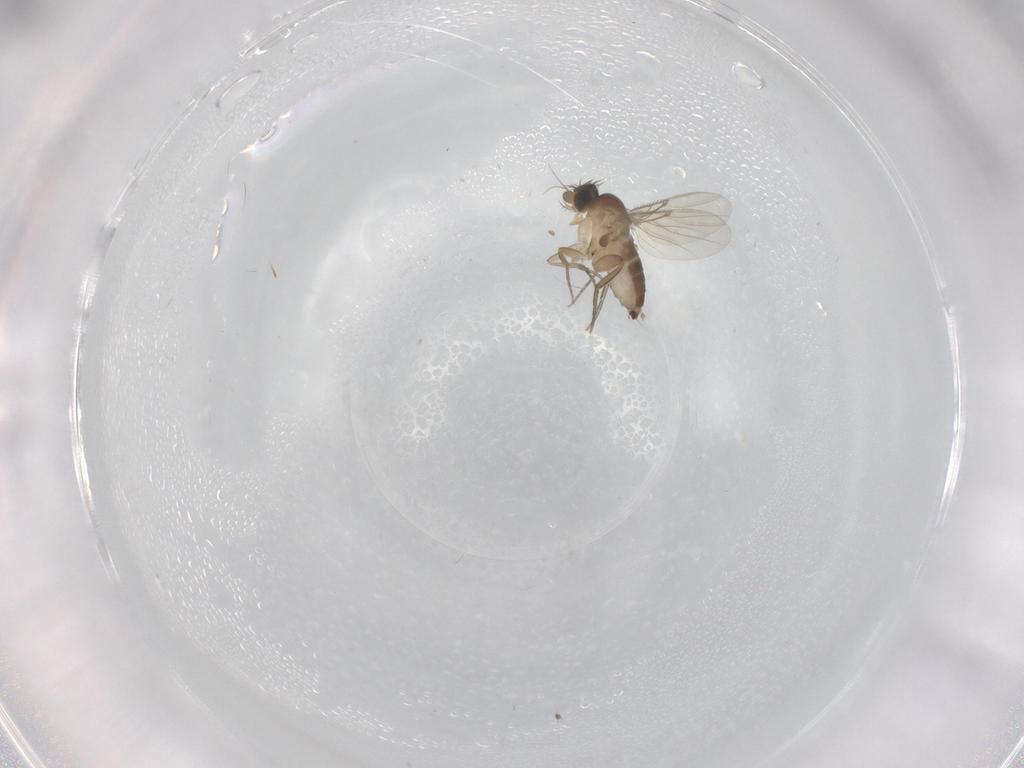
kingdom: Animalia
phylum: Arthropoda
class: Insecta
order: Diptera
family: Phoridae
